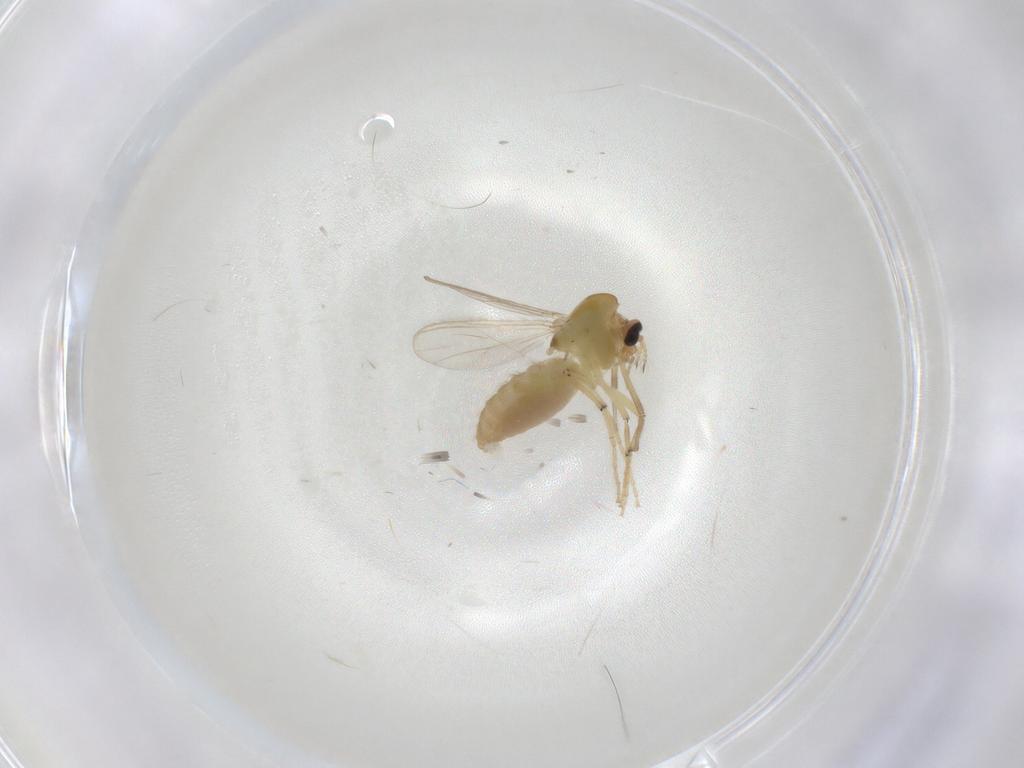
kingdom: Animalia
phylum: Arthropoda
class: Insecta
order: Diptera
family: Chironomidae
